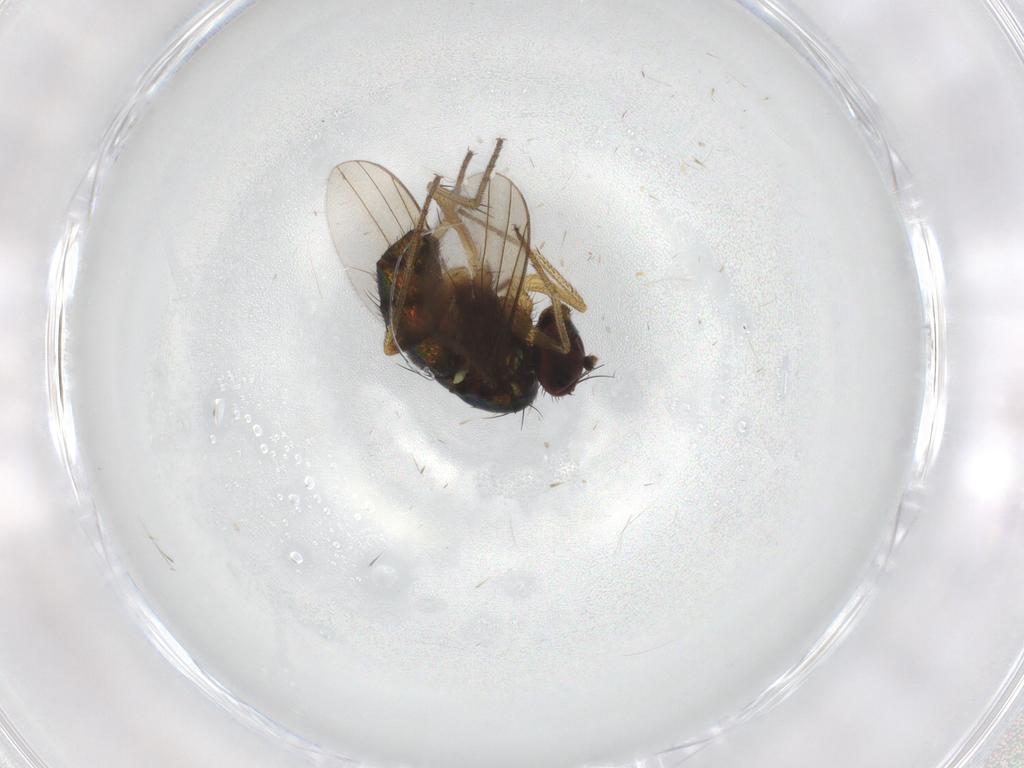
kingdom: Animalia
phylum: Arthropoda
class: Insecta
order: Diptera
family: Dolichopodidae
